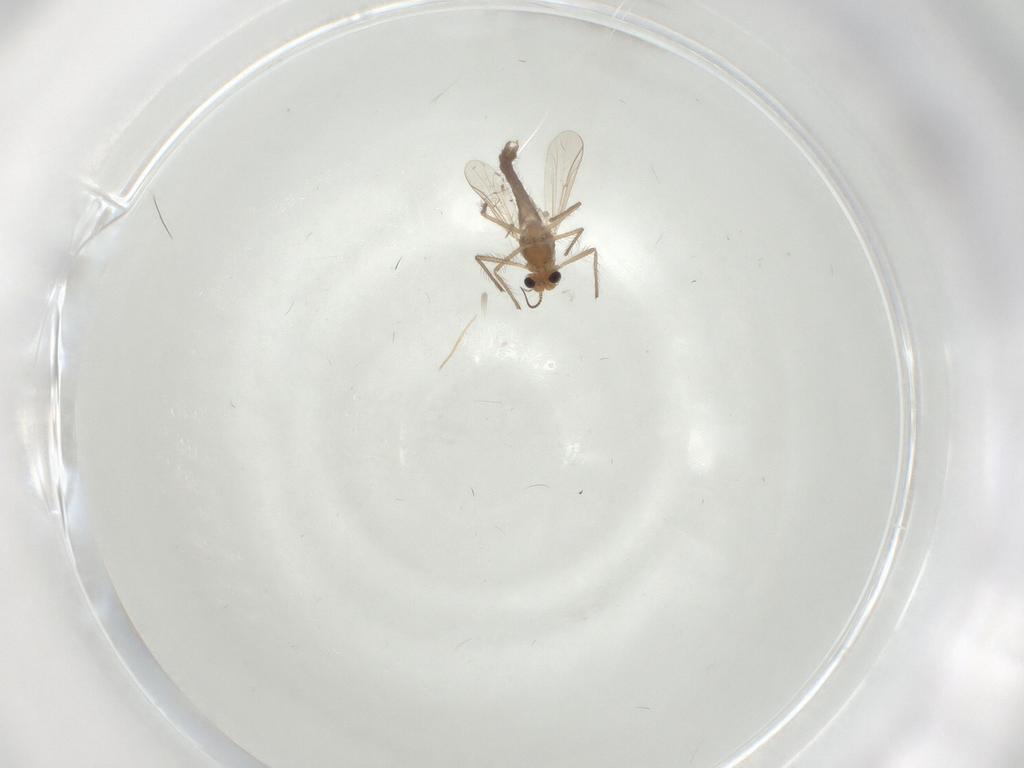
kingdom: Animalia
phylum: Arthropoda
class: Insecta
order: Diptera
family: Chironomidae
